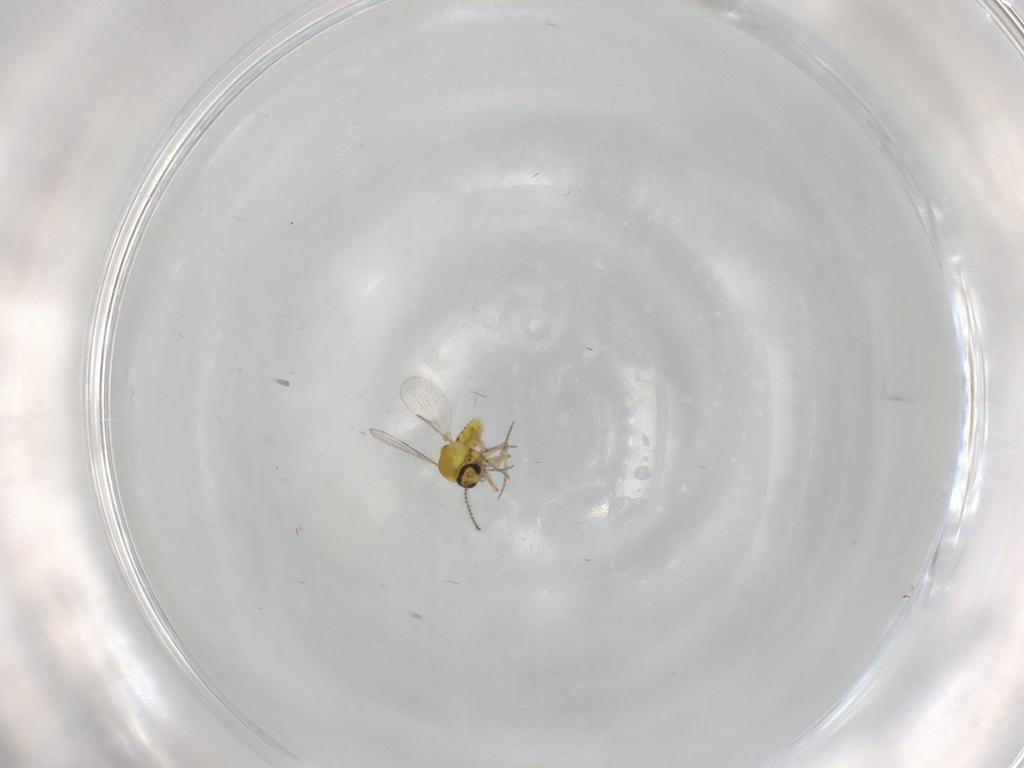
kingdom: Animalia
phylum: Arthropoda
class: Insecta
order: Diptera
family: Ceratopogonidae
